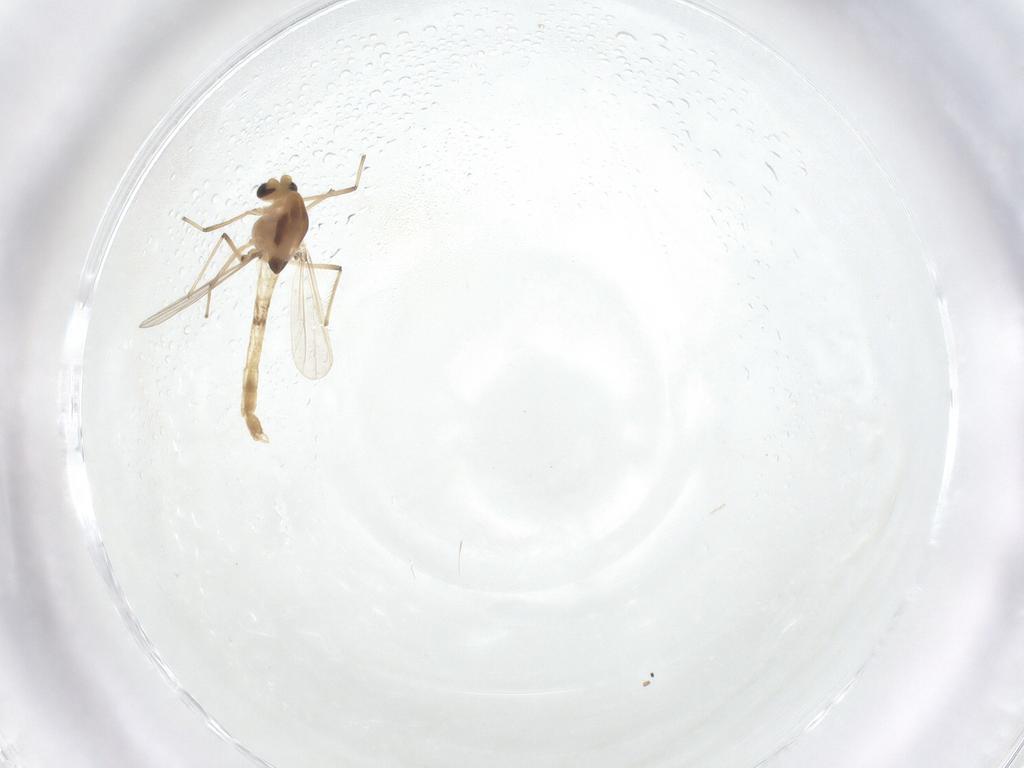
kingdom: Animalia
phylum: Arthropoda
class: Insecta
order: Diptera
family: Chironomidae
